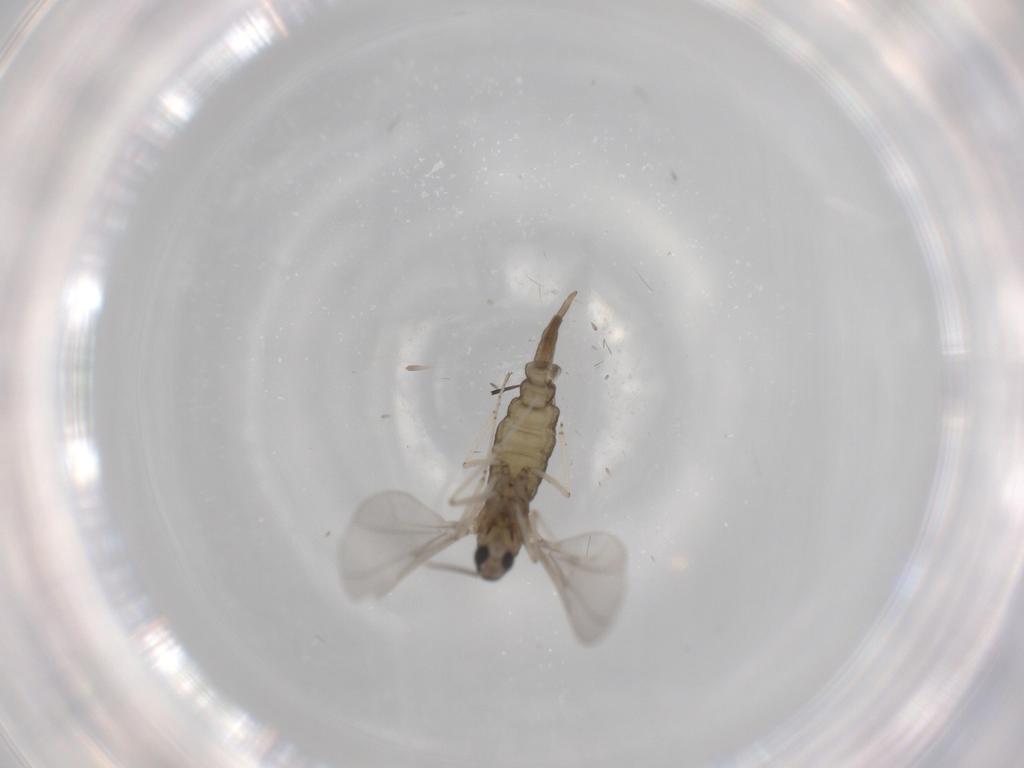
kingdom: Animalia
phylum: Arthropoda
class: Insecta
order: Diptera
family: Cecidomyiidae
